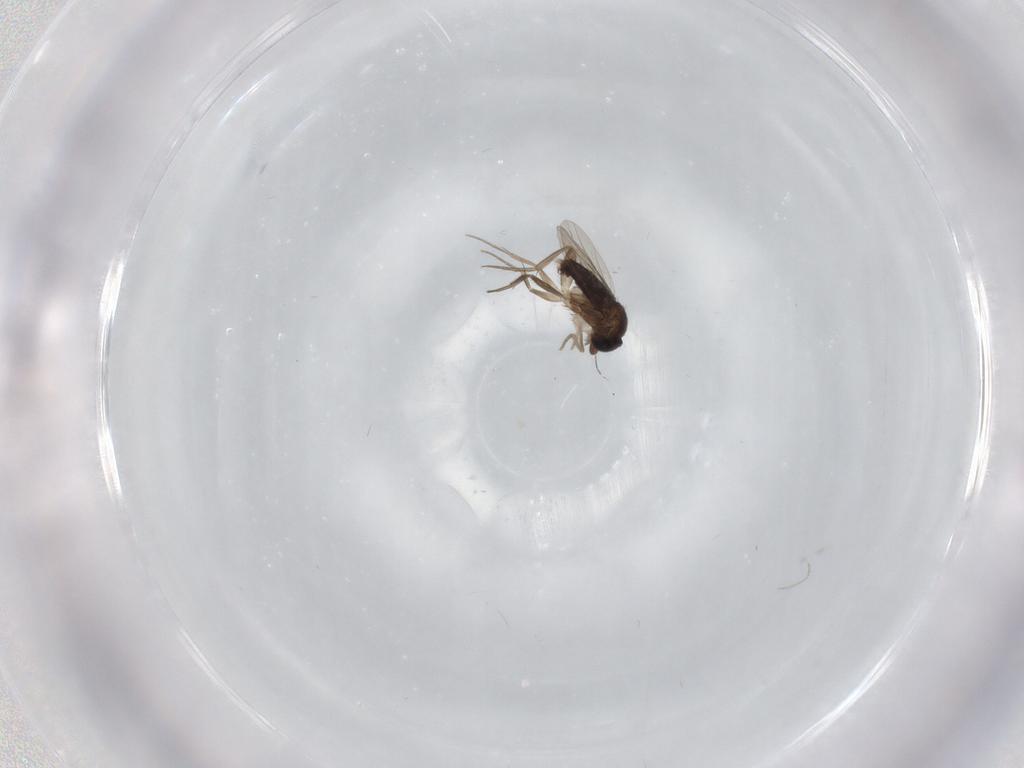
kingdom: Animalia
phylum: Arthropoda
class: Insecta
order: Diptera
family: Phoridae
